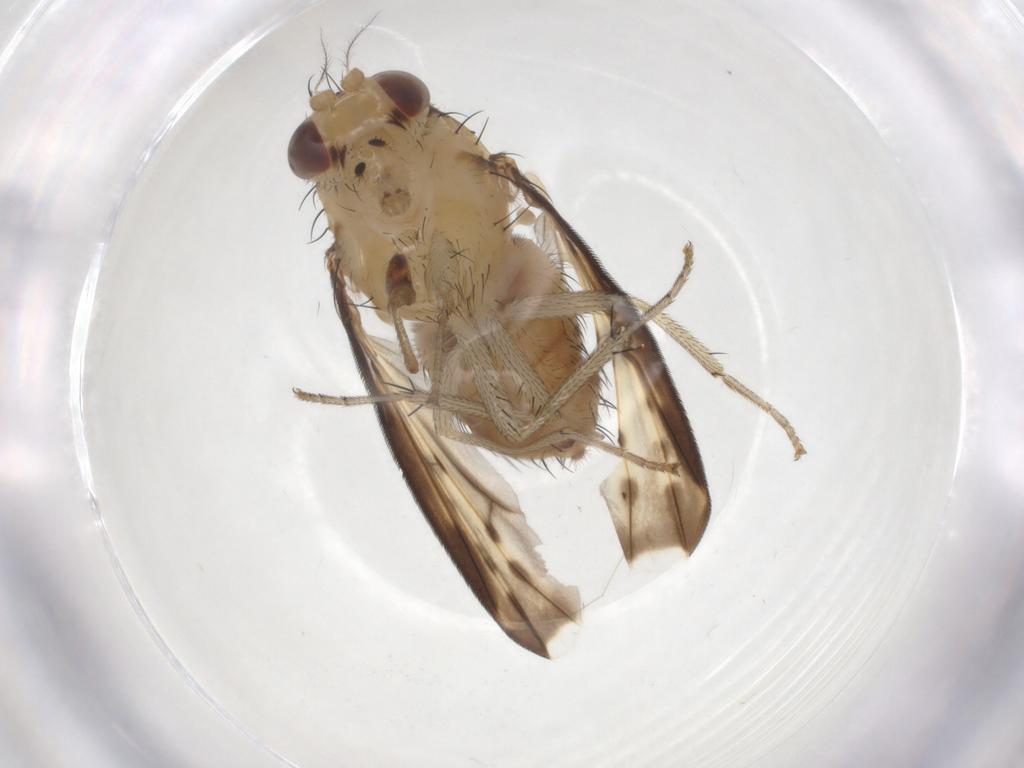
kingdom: Animalia
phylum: Arthropoda
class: Insecta
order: Diptera
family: Cecidomyiidae
